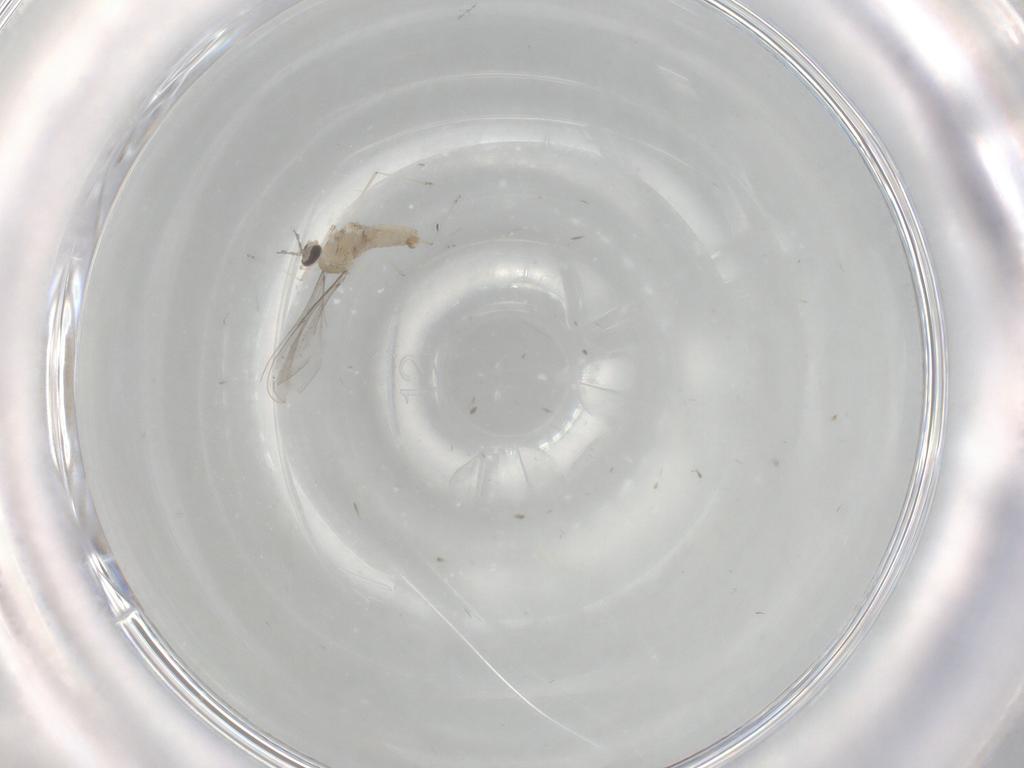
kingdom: Animalia
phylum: Arthropoda
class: Insecta
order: Diptera
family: Cecidomyiidae
